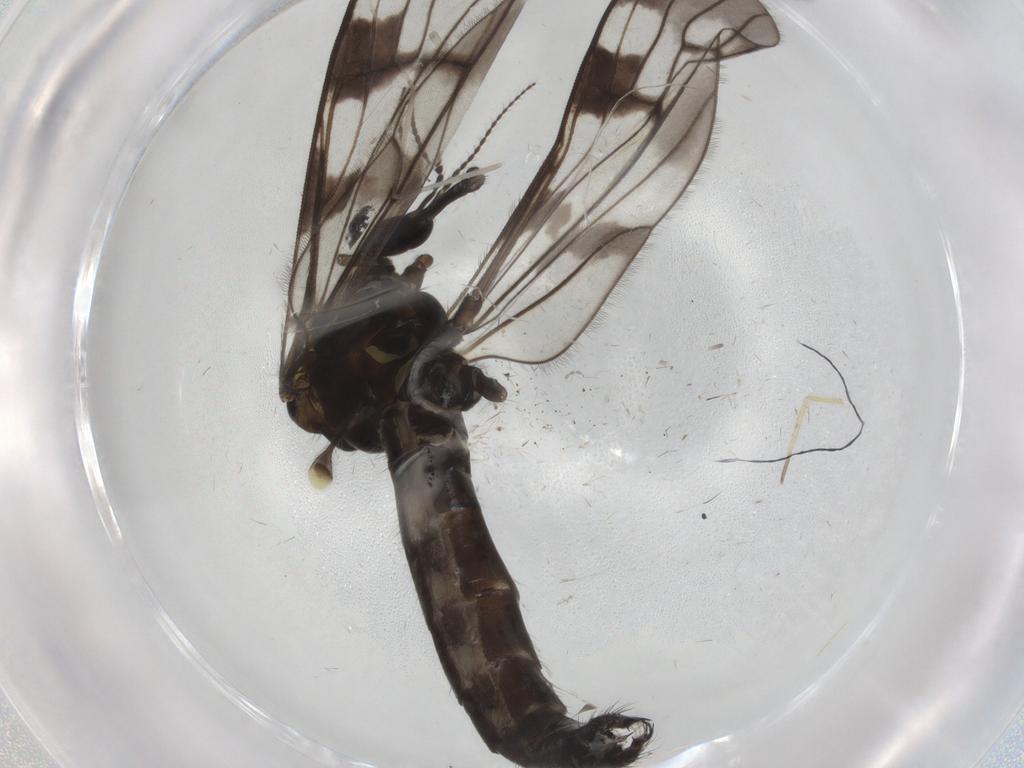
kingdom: Animalia
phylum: Arthropoda
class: Insecta
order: Diptera
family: Limoniidae
